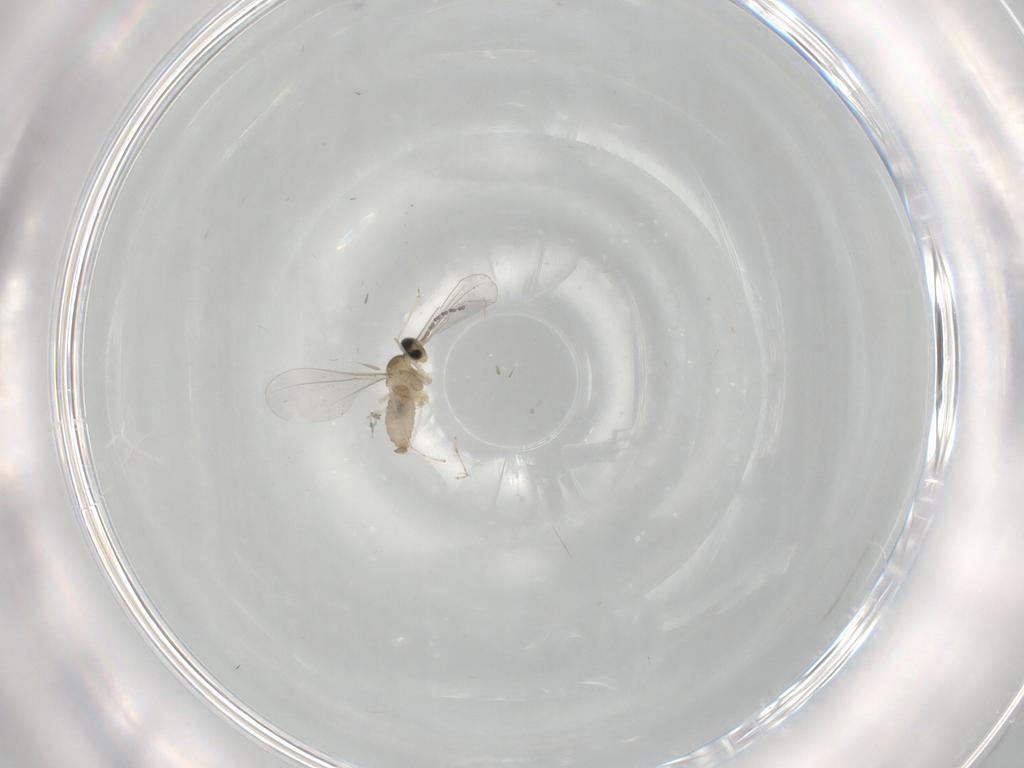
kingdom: Animalia
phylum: Arthropoda
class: Insecta
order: Diptera
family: Cecidomyiidae
